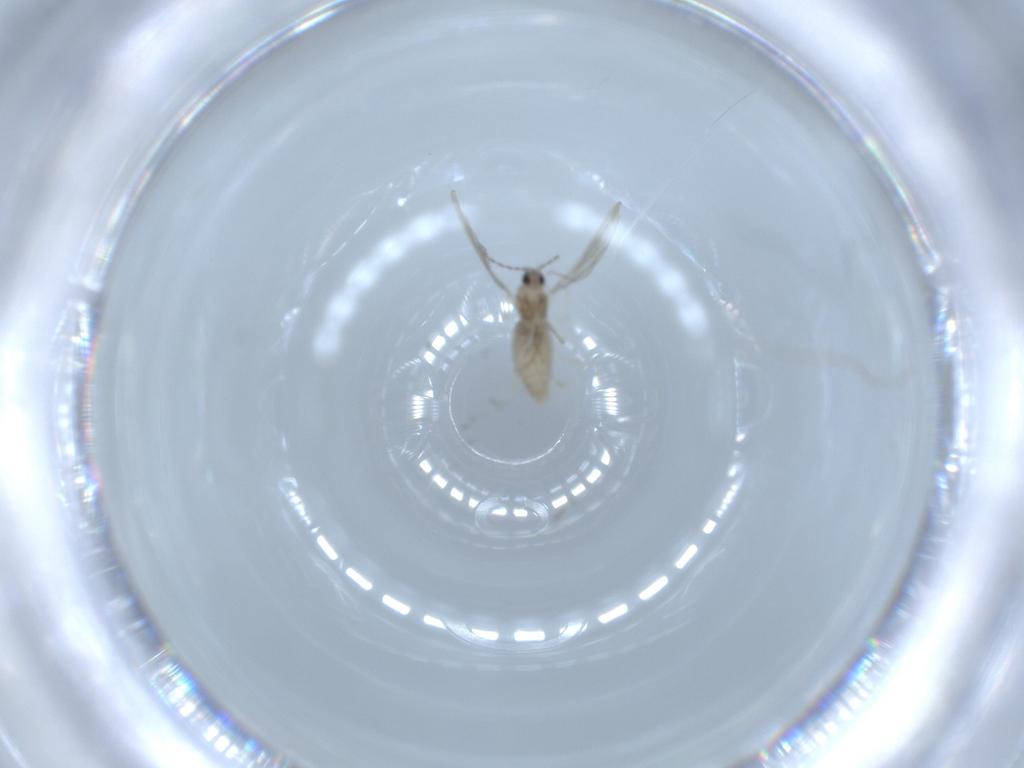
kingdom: Animalia
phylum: Arthropoda
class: Insecta
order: Diptera
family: Cecidomyiidae
